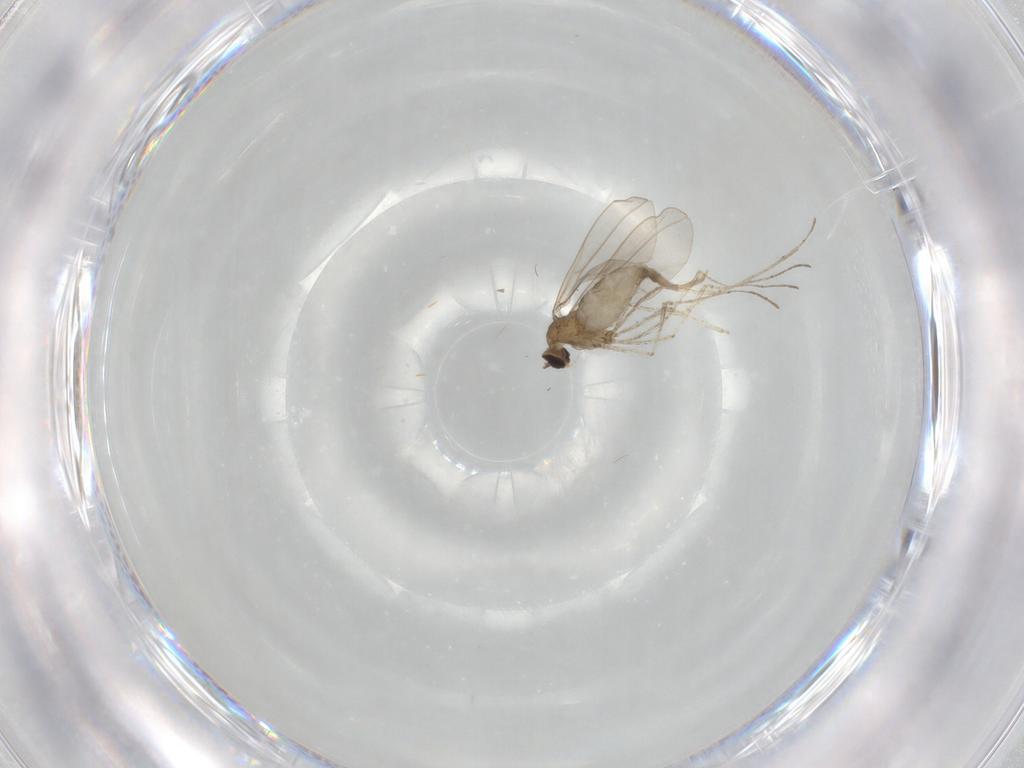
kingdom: Animalia
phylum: Arthropoda
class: Insecta
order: Diptera
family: Cecidomyiidae
